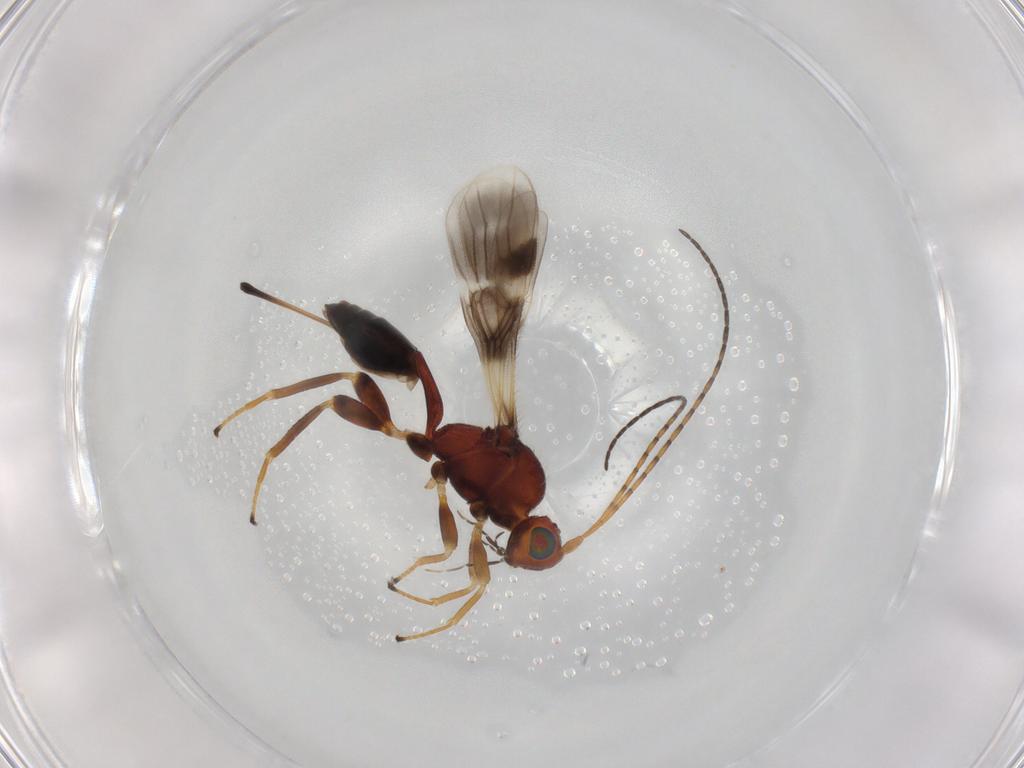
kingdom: Animalia
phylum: Arthropoda
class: Insecta
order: Hymenoptera
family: Braconidae
